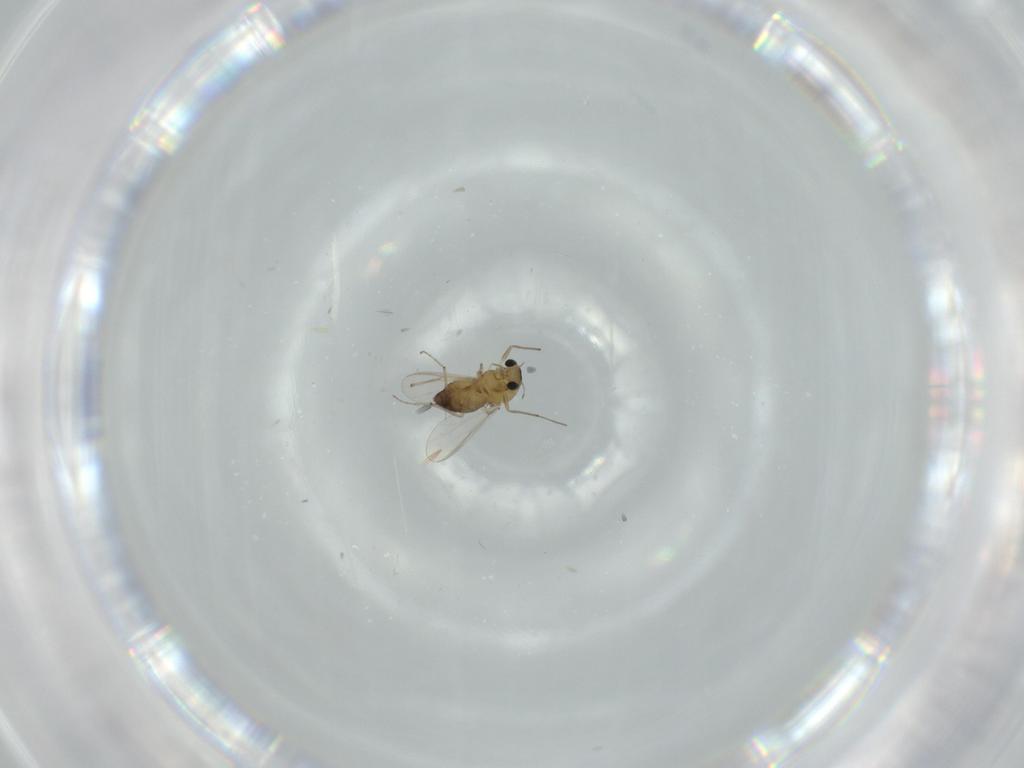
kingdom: Animalia
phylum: Arthropoda
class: Insecta
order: Diptera
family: Chironomidae
